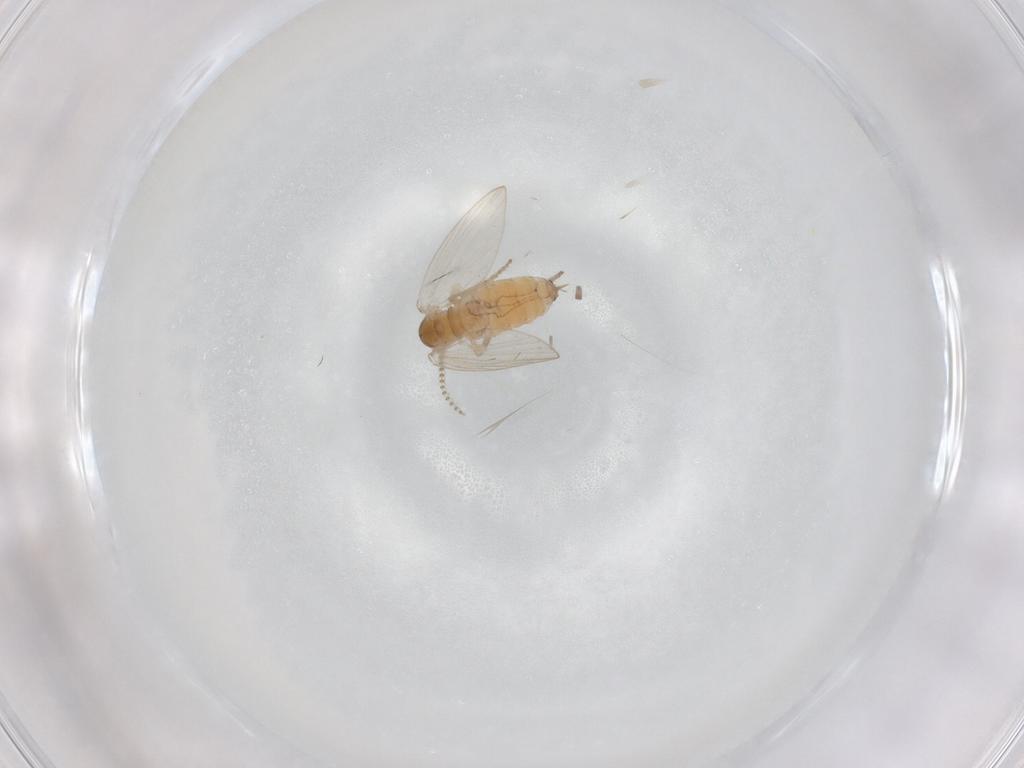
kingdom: Animalia
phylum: Arthropoda
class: Insecta
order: Diptera
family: Psychodidae
